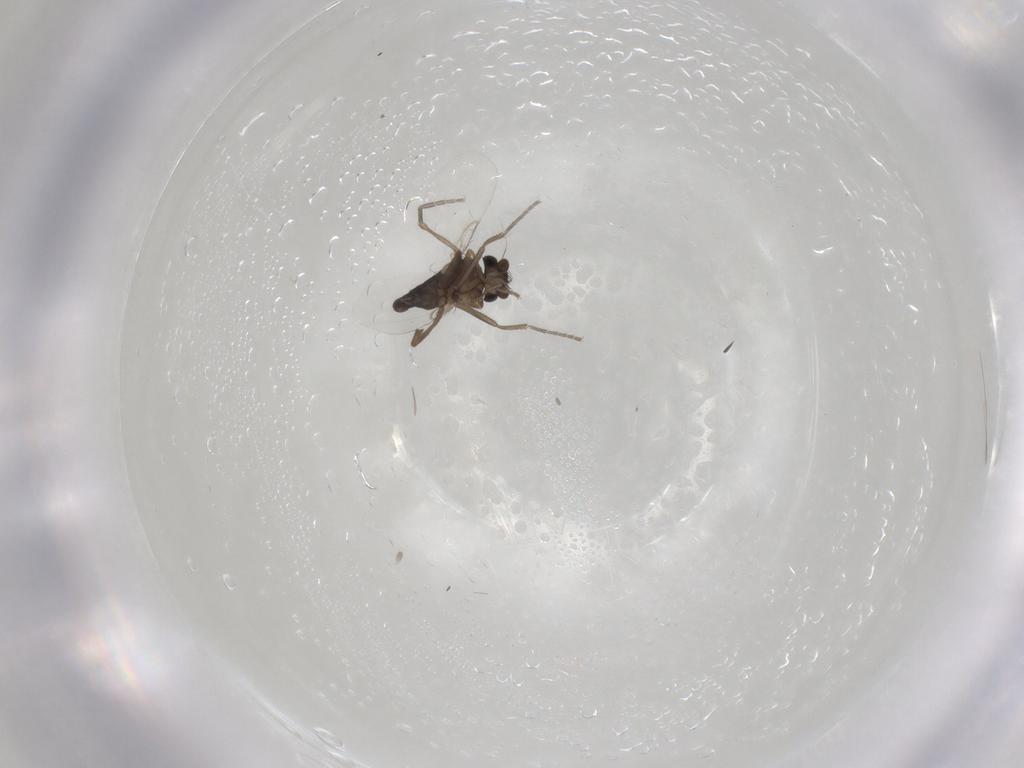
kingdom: Animalia
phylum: Arthropoda
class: Insecta
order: Diptera
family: Phoridae
